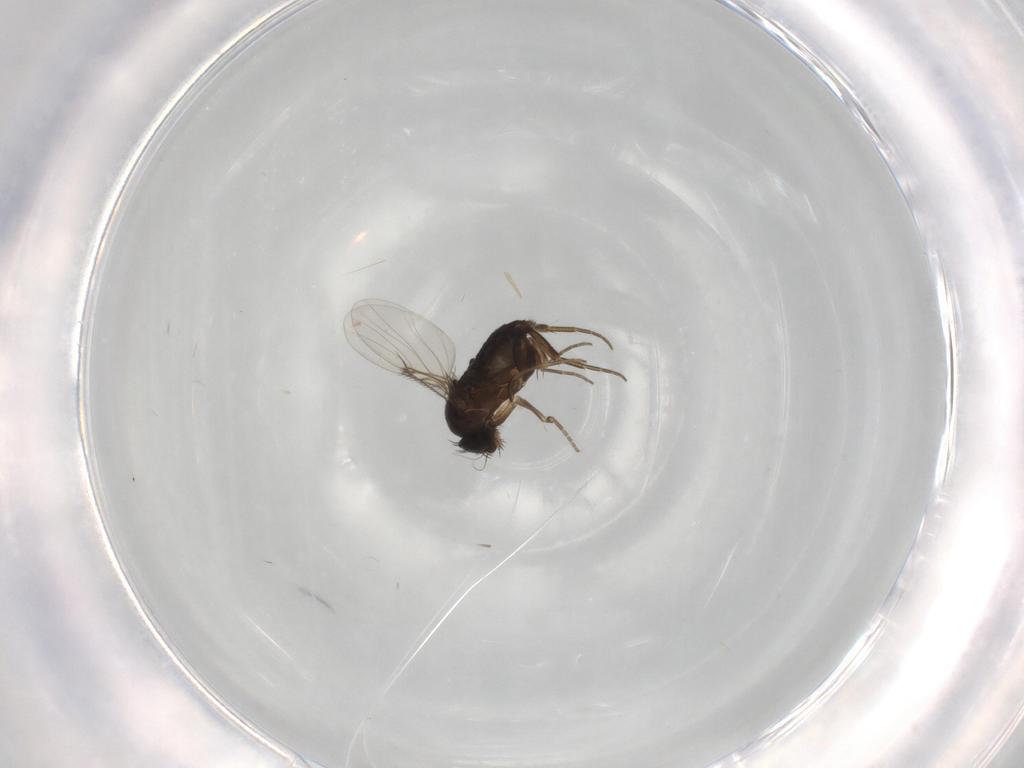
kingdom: Animalia
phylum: Arthropoda
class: Insecta
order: Diptera
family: Phoridae
